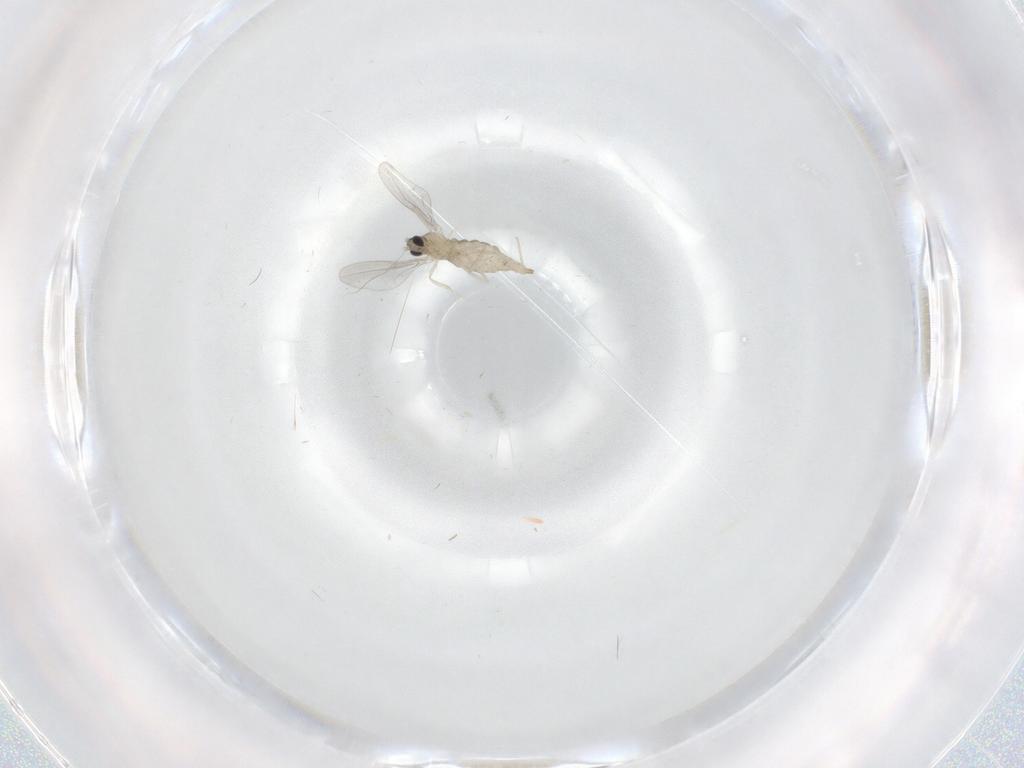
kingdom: Animalia
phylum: Arthropoda
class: Insecta
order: Diptera
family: Cecidomyiidae
